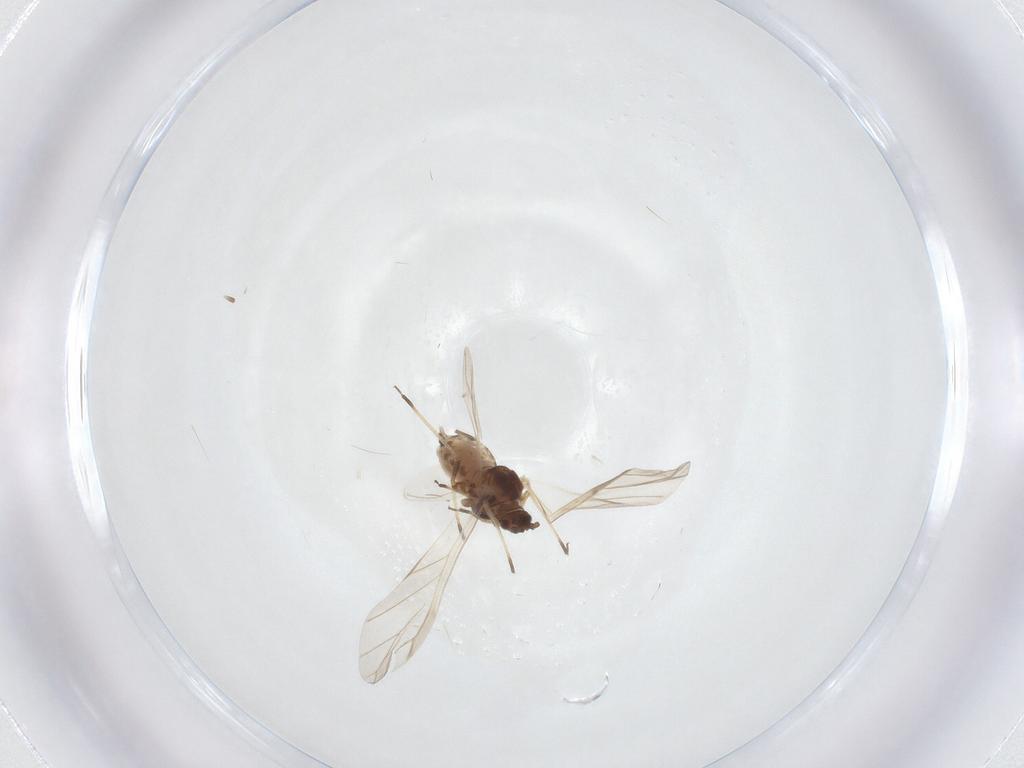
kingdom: Animalia
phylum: Arthropoda
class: Insecta
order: Hemiptera
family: Aphididae
